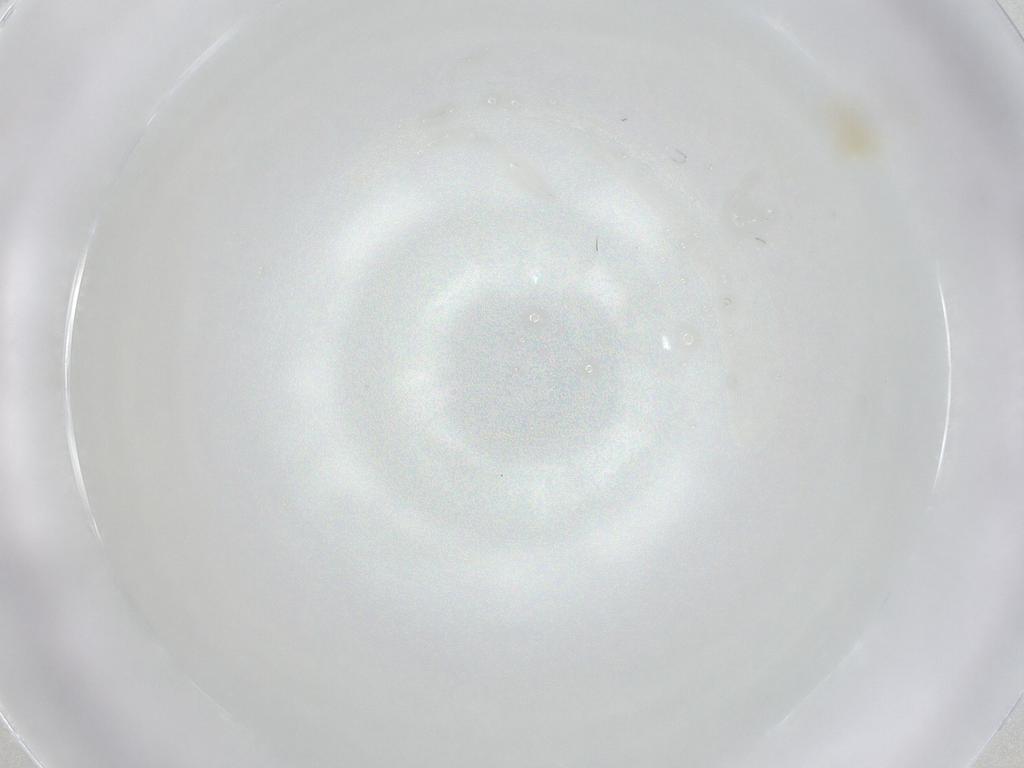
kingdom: Animalia
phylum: Arthropoda
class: Arachnida
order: Trombidiformes
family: Erythraeidae
